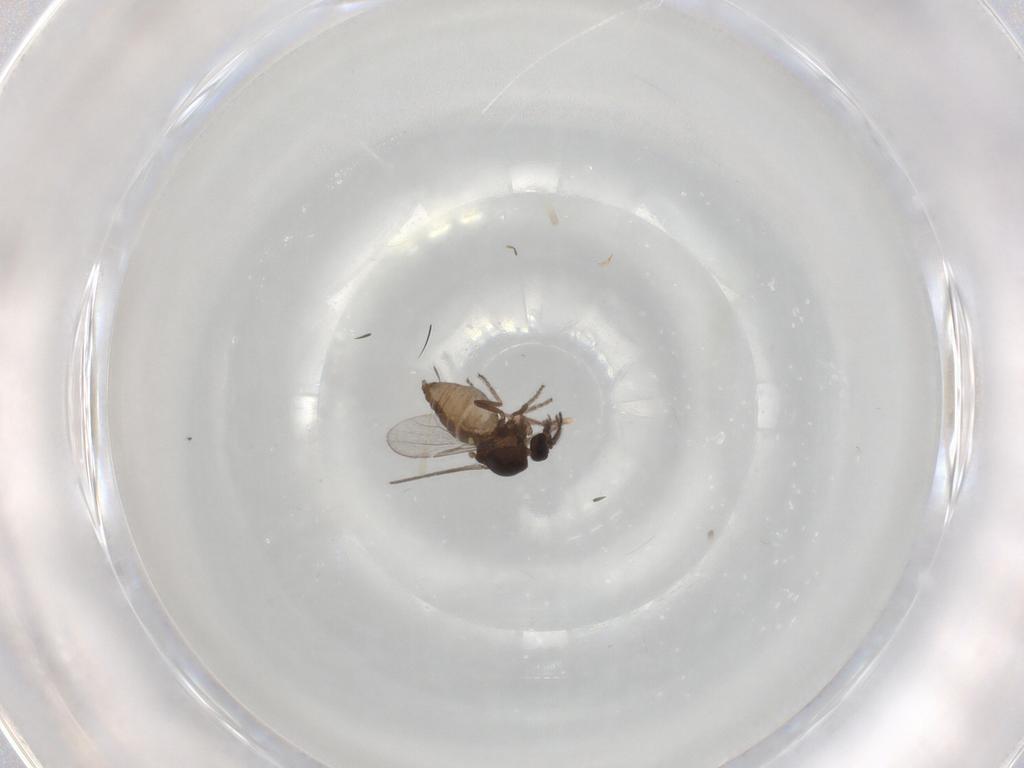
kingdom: Animalia
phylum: Arthropoda
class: Insecta
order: Diptera
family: Ceratopogonidae
